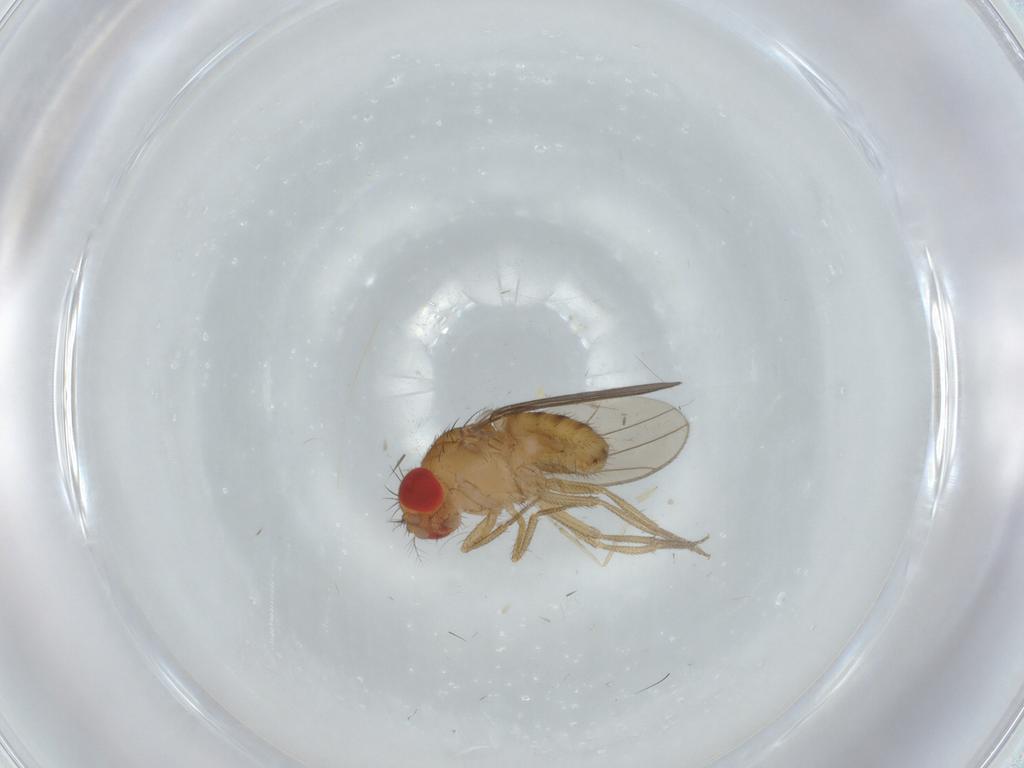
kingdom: Animalia
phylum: Arthropoda
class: Insecta
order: Diptera
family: Drosophilidae
